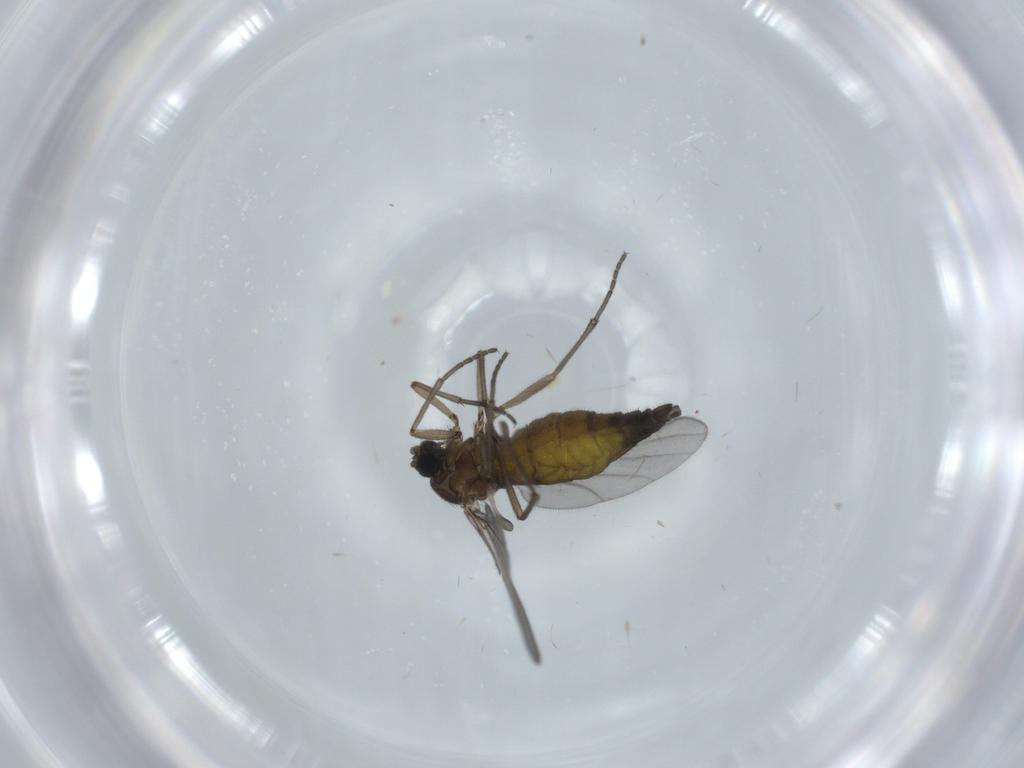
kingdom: Animalia
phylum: Arthropoda
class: Insecta
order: Diptera
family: Sciaridae
